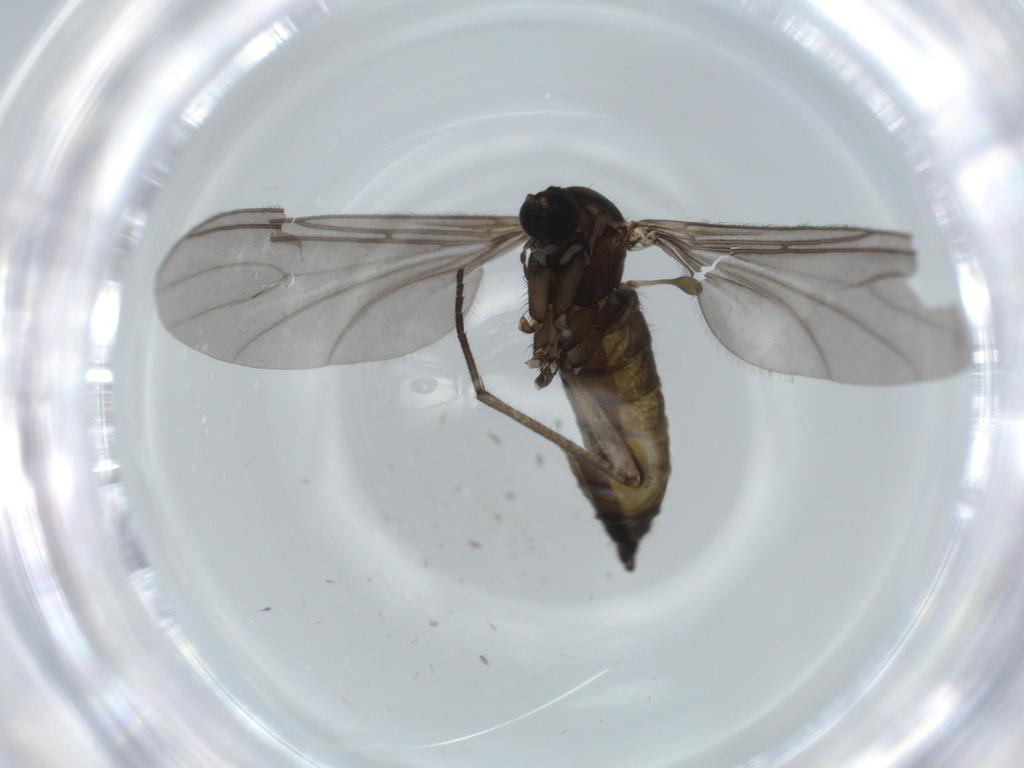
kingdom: Animalia
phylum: Arthropoda
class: Insecta
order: Diptera
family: Sciaridae
